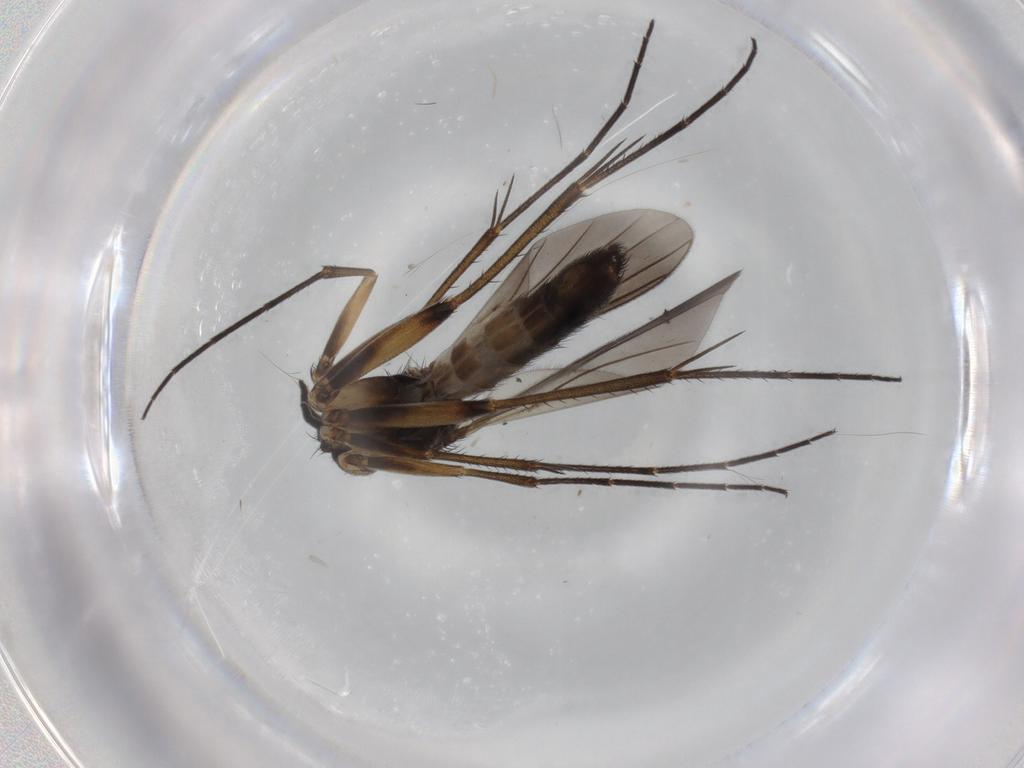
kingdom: Animalia
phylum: Arthropoda
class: Insecta
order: Diptera
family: Mycetophilidae
